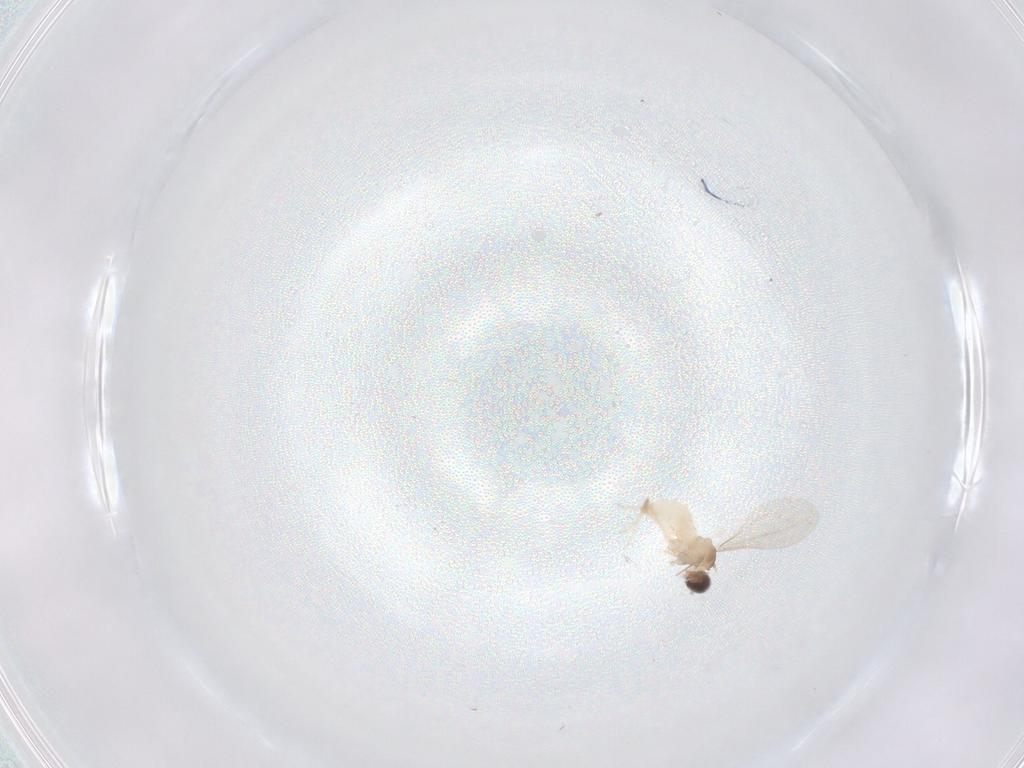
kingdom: Animalia
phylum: Arthropoda
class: Insecta
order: Diptera
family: Cecidomyiidae
